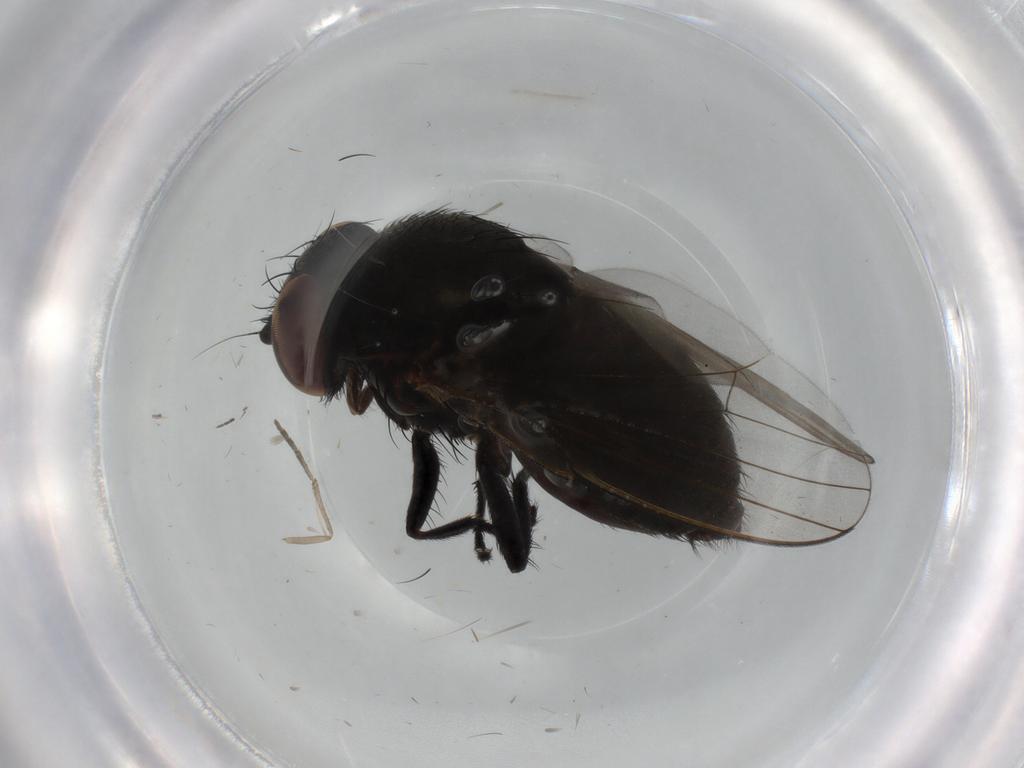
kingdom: Animalia
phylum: Arthropoda
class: Insecta
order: Diptera
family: Milichiidae
